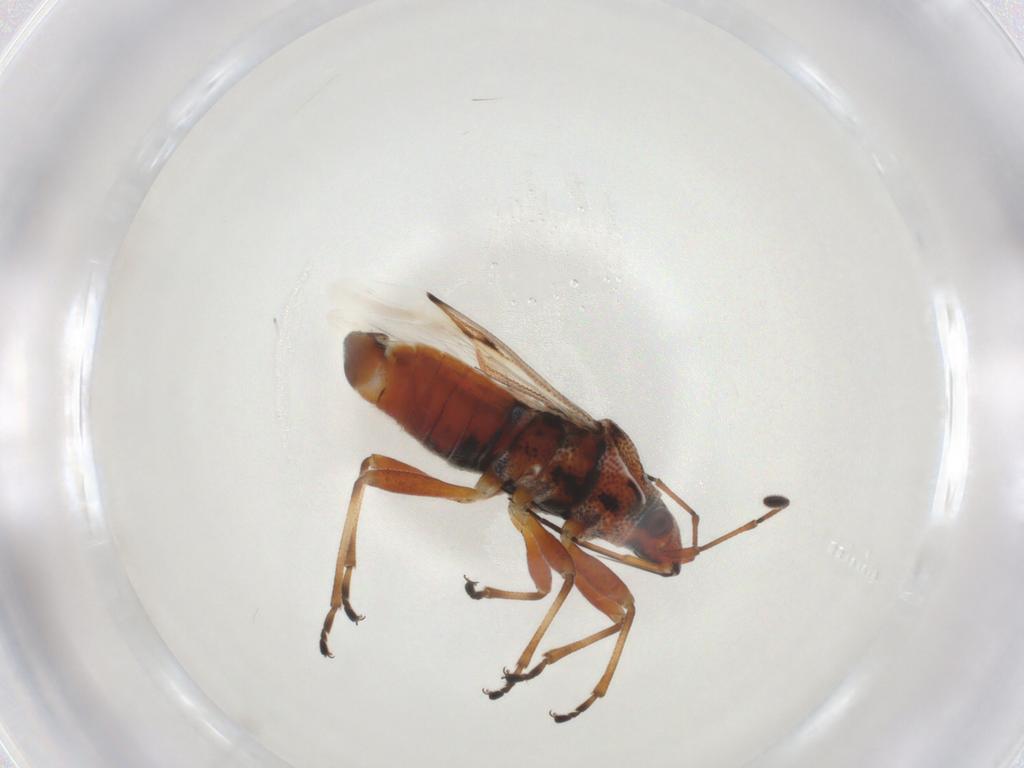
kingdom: Animalia
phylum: Arthropoda
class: Insecta
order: Hemiptera
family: Lygaeidae
